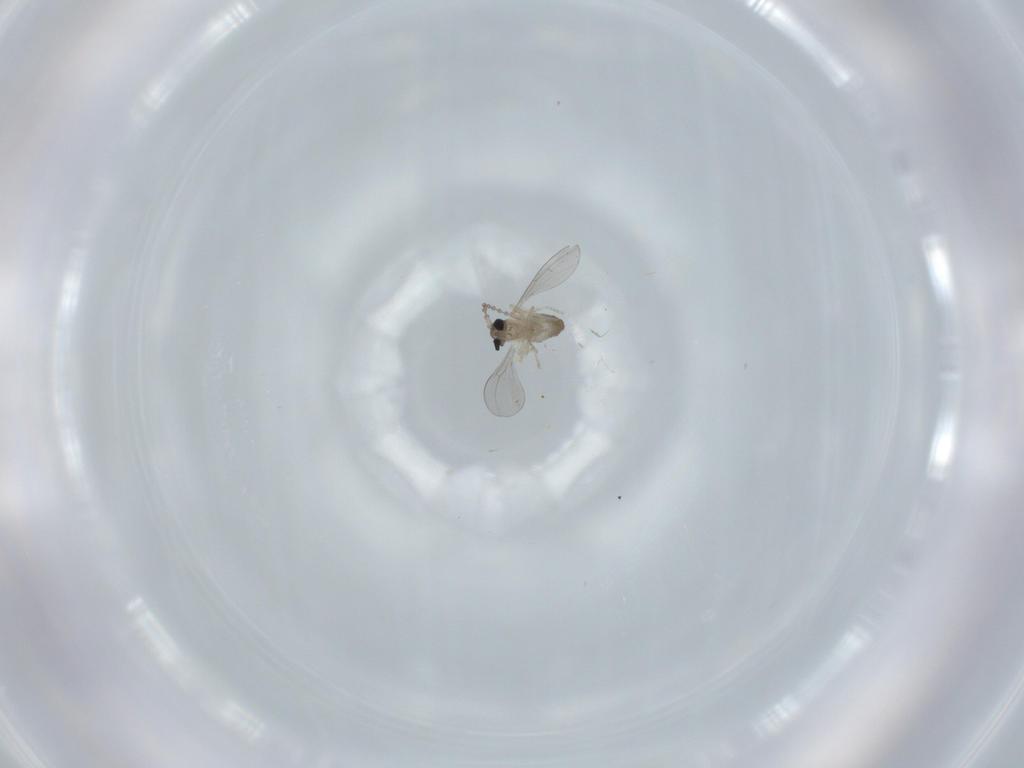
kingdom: Animalia
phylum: Arthropoda
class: Insecta
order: Diptera
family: Cecidomyiidae
